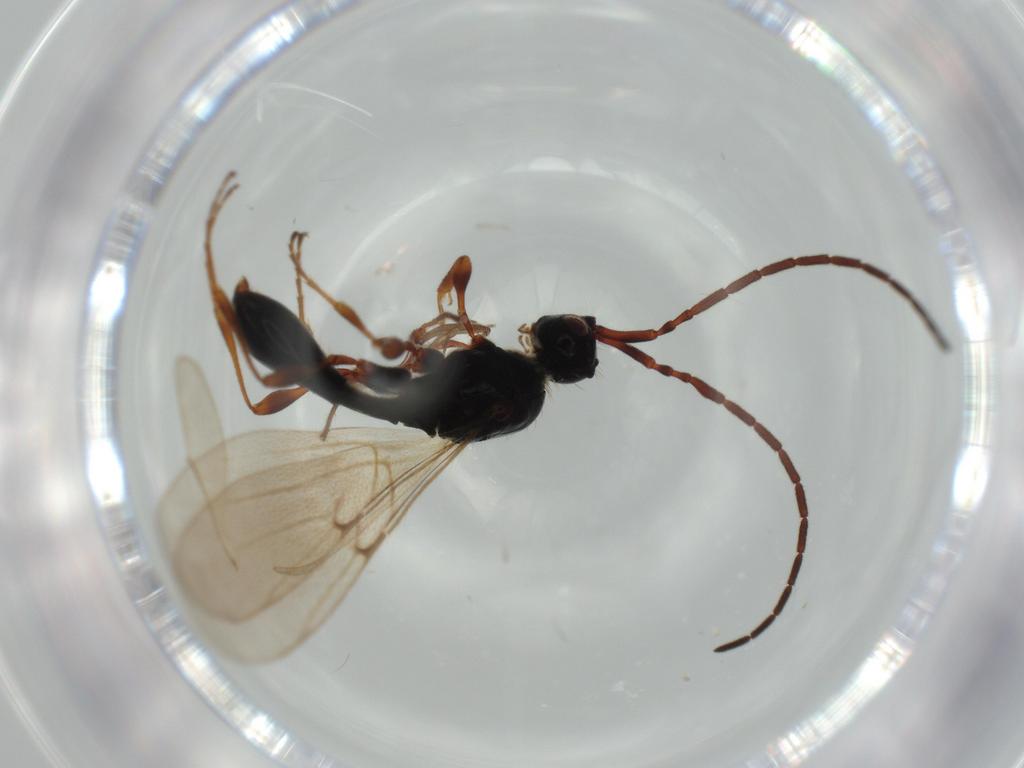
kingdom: Animalia
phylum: Arthropoda
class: Insecta
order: Hymenoptera
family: Diapriidae
